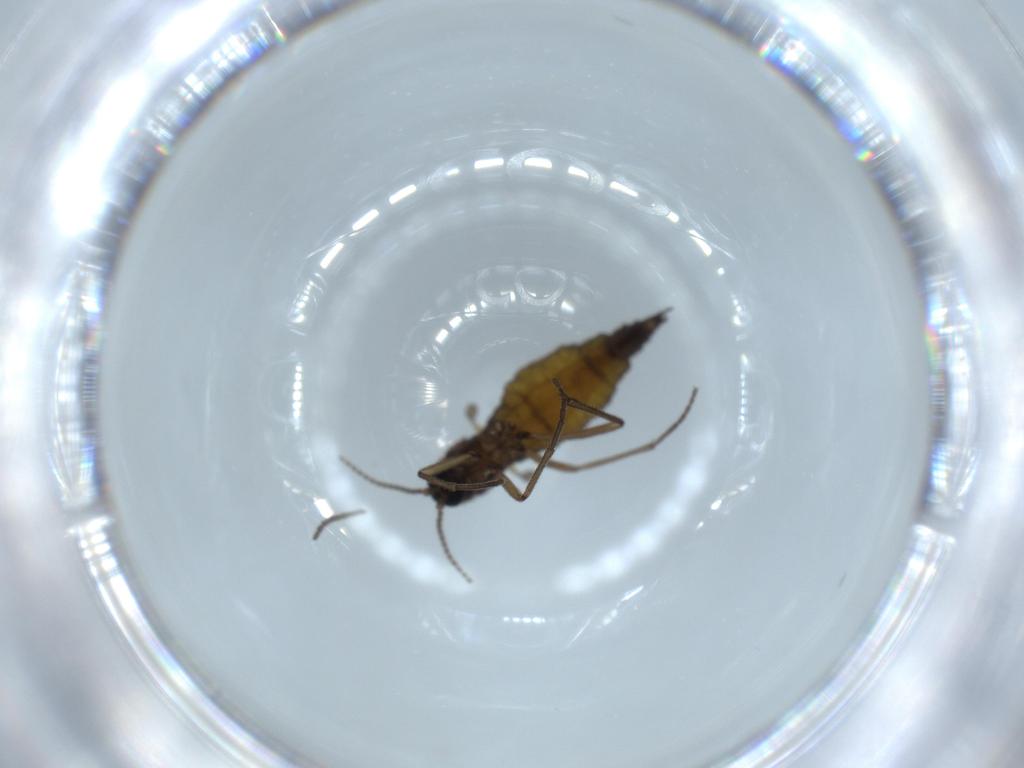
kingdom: Animalia
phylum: Arthropoda
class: Insecta
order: Diptera
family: Sciaridae
